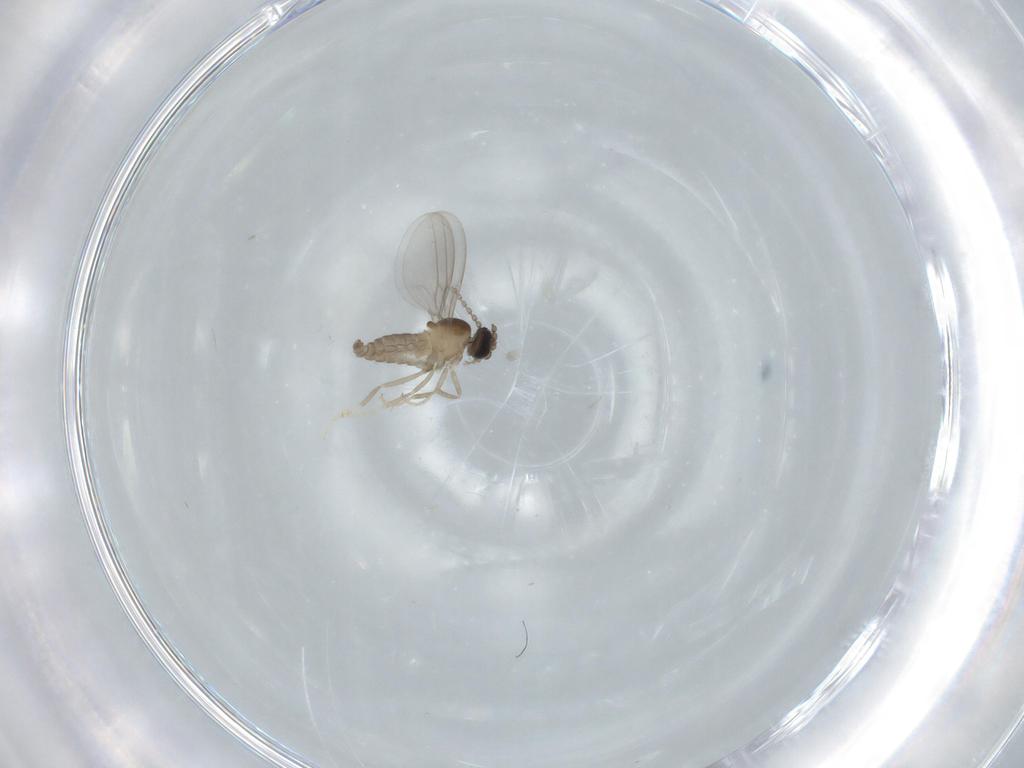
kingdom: Animalia
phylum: Arthropoda
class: Insecta
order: Diptera
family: Cecidomyiidae
